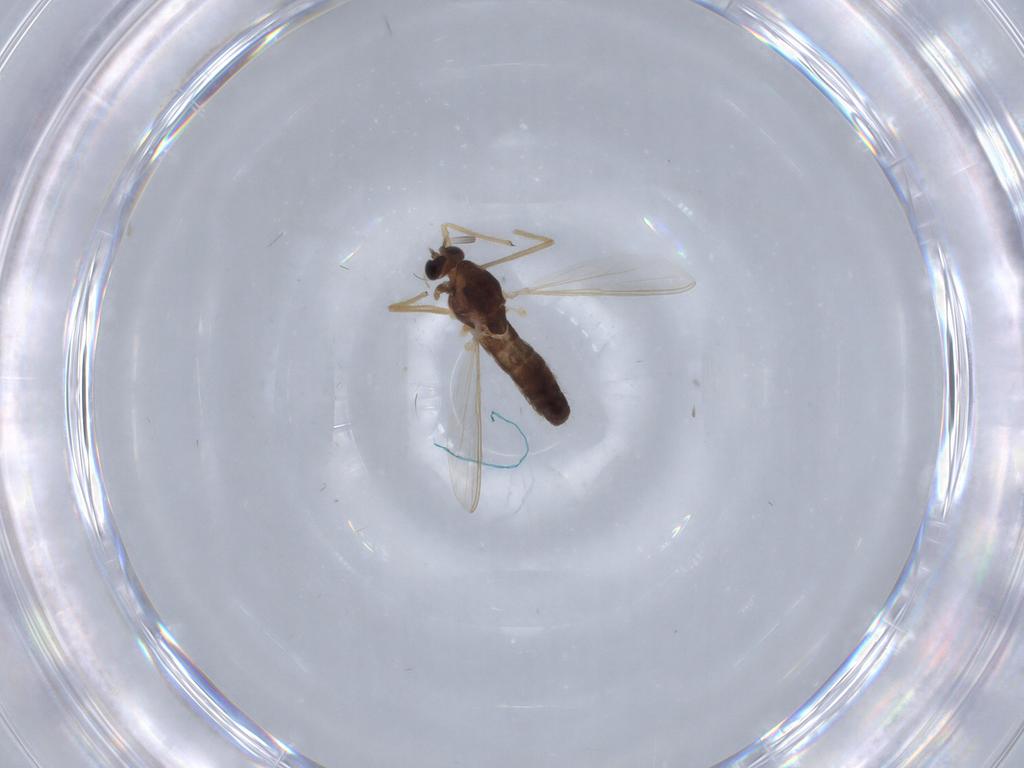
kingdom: Animalia
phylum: Arthropoda
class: Insecta
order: Diptera
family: Chironomidae
